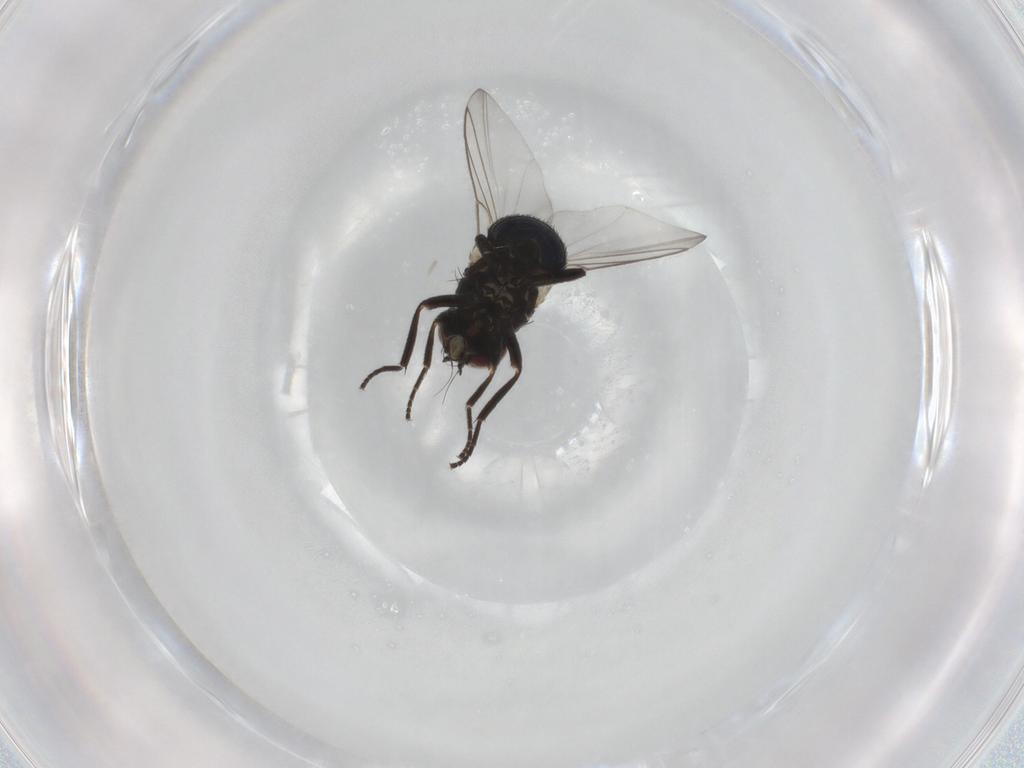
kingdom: Animalia
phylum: Arthropoda
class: Insecta
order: Diptera
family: Agromyzidae
